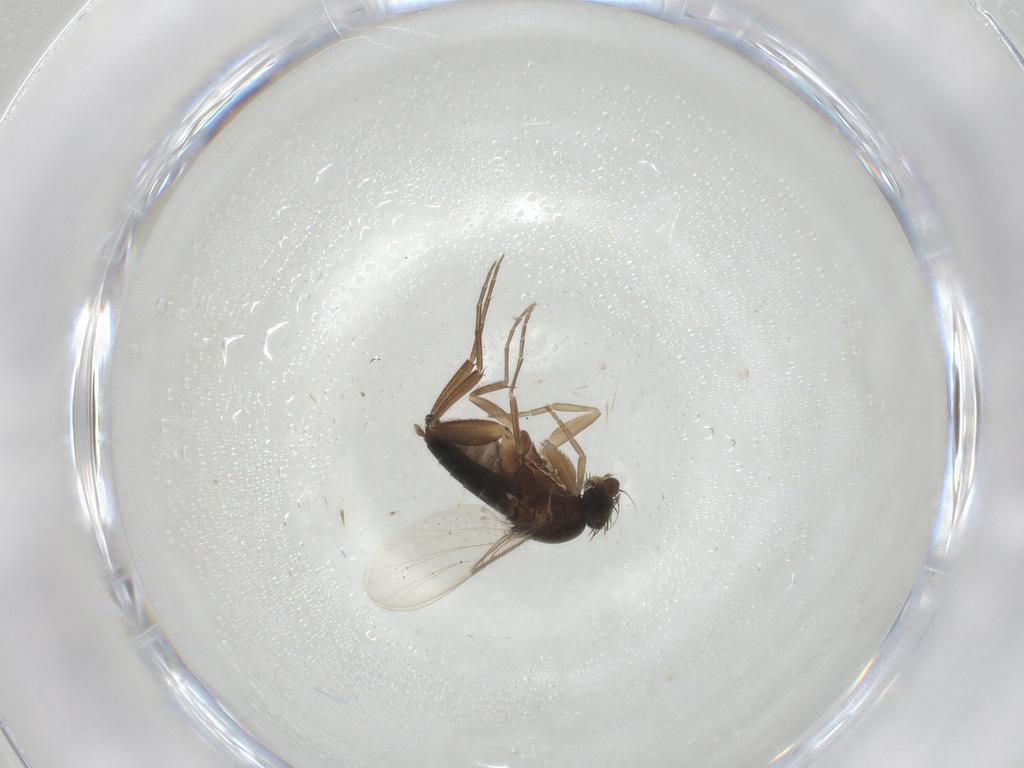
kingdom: Animalia
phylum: Arthropoda
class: Insecta
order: Diptera
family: Phoridae
